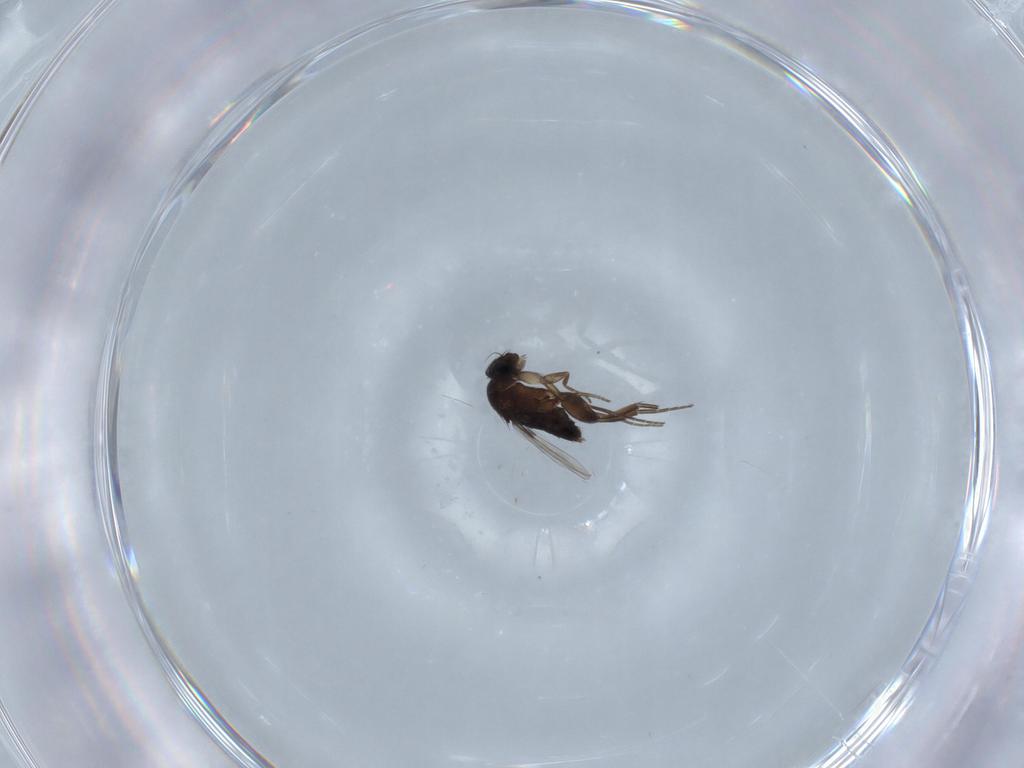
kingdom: Animalia
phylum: Arthropoda
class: Insecta
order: Diptera
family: Phoridae
